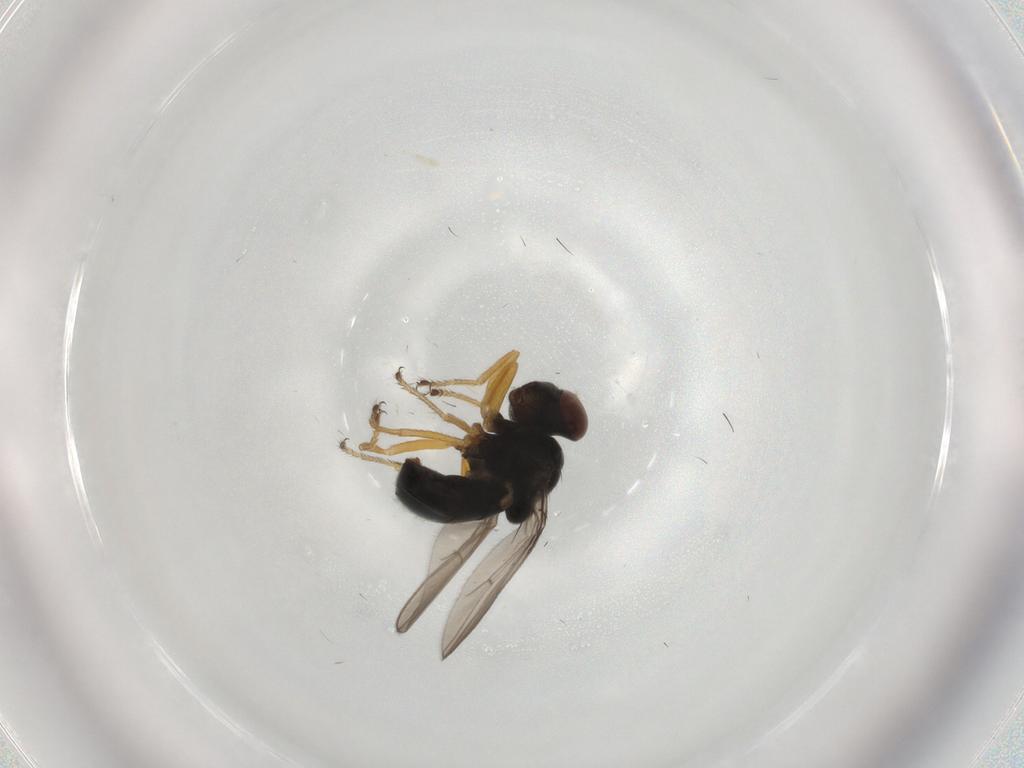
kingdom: Animalia
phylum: Arthropoda
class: Insecta
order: Diptera
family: Ephydridae
